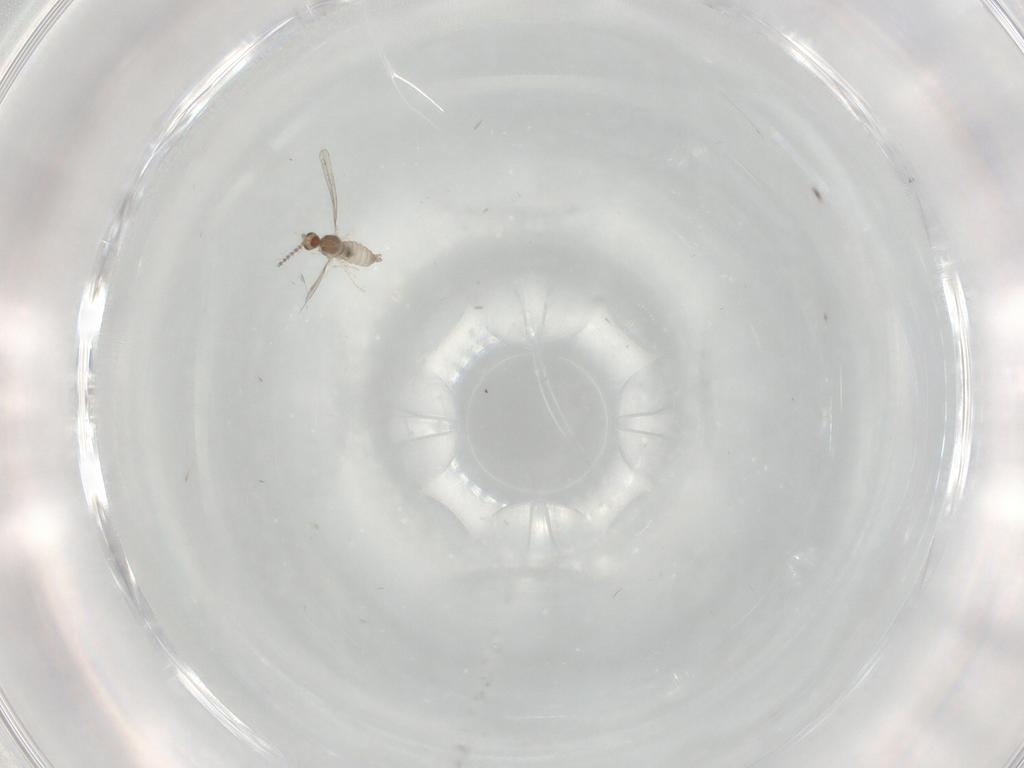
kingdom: Animalia
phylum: Arthropoda
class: Insecta
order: Diptera
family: Cecidomyiidae
